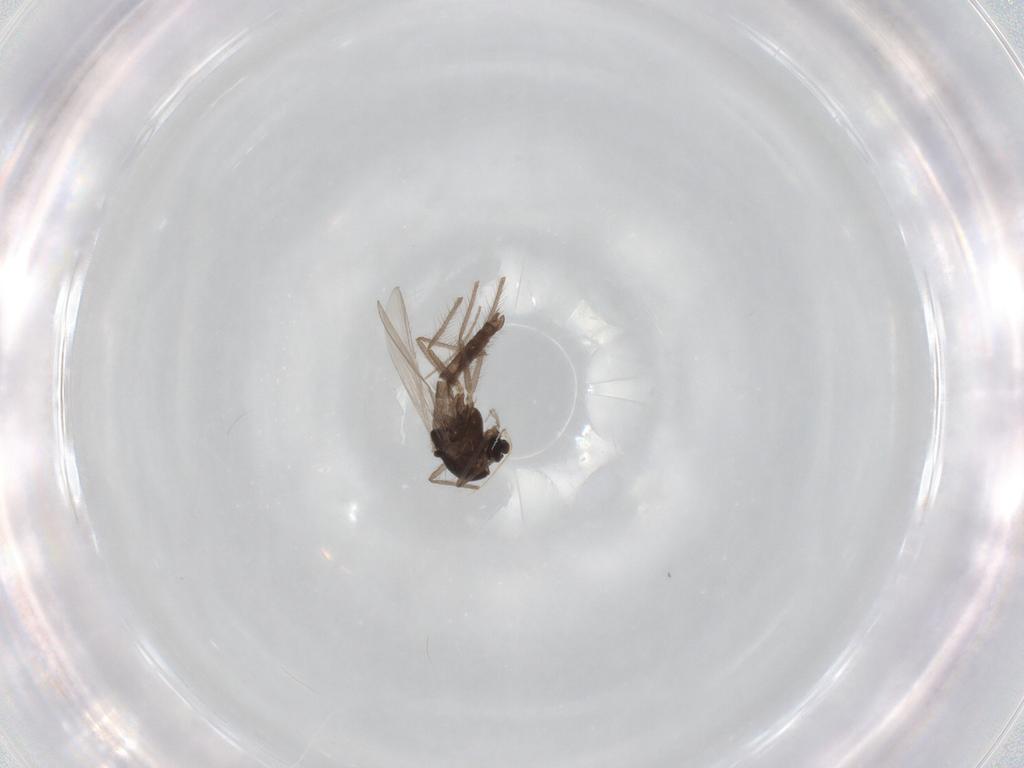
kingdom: Animalia
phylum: Arthropoda
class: Insecta
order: Diptera
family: Chironomidae
